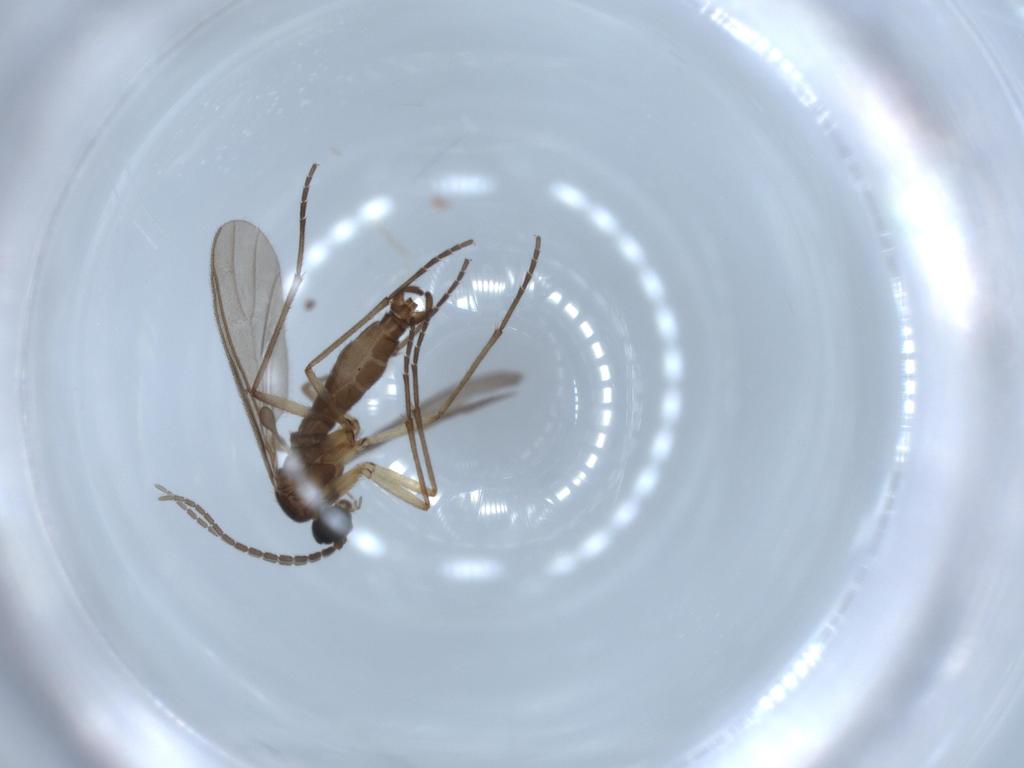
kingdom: Animalia
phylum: Arthropoda
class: Insecta
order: Diptera
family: Sciaridae
